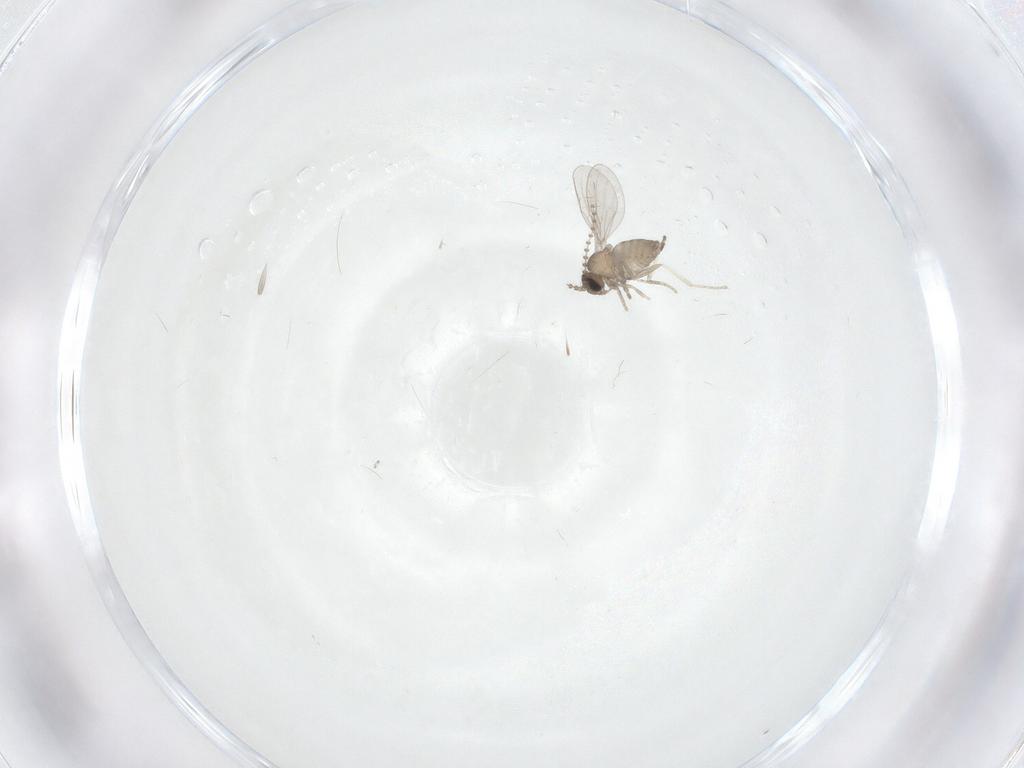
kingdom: Animalia
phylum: Arthropoda
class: Insecta
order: Diptera
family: Cecidomyiidae
